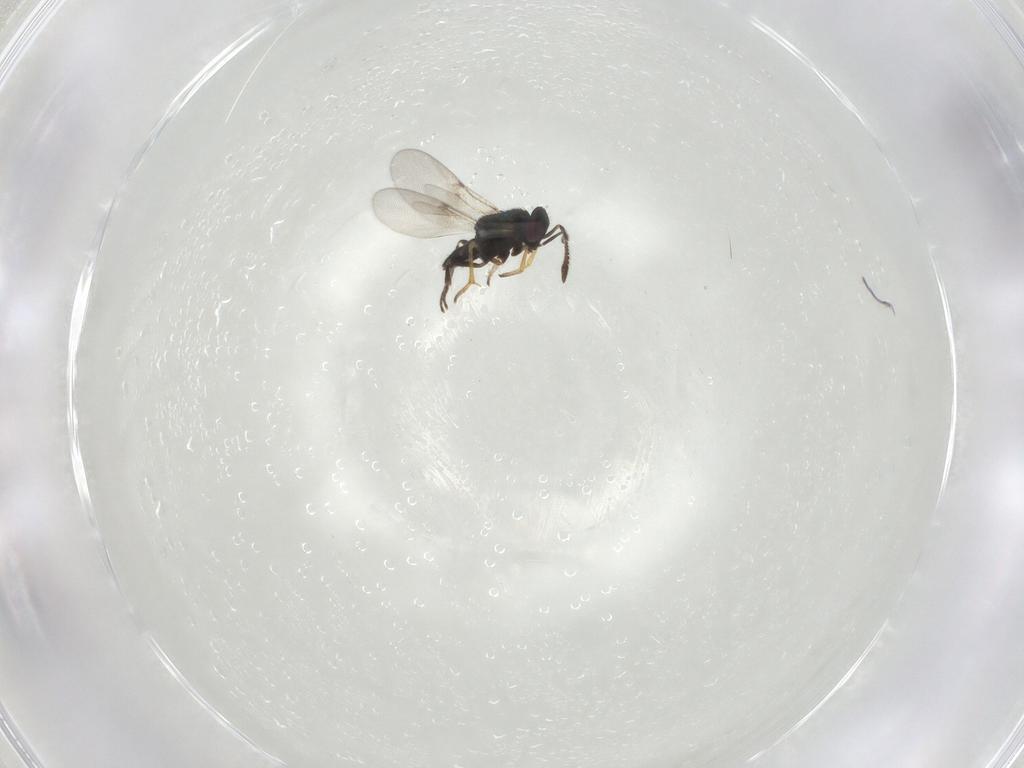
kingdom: Animalia
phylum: Arthropoda
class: Insecta
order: Hymenoptera
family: Encyrtidae
